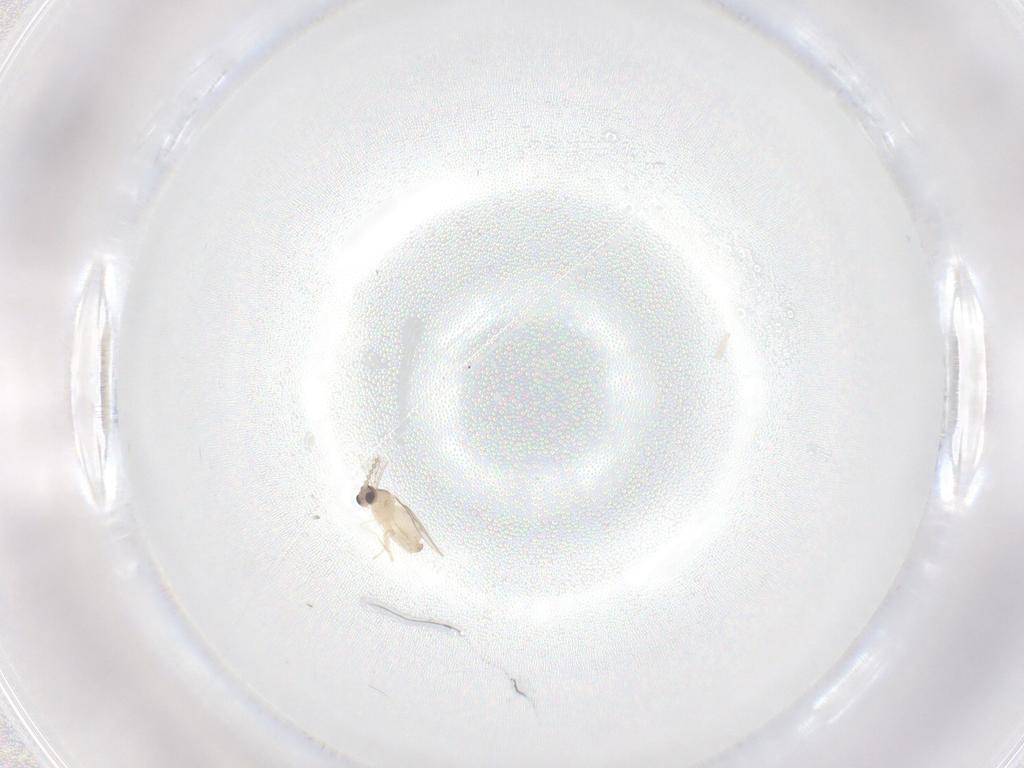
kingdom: Animalia
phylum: Arthropoda
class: Insecta
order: Diptera
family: Cecidomyiidae
